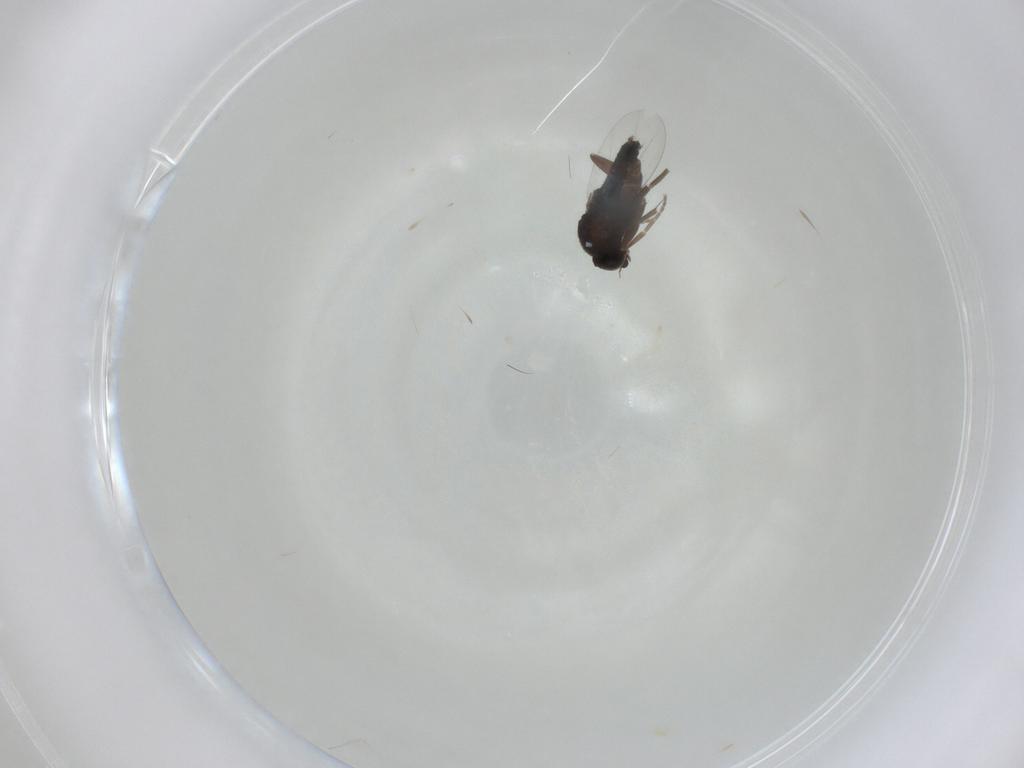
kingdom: Animalia
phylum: Arthropoda
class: Insecta
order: Diptera
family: Phoridae
